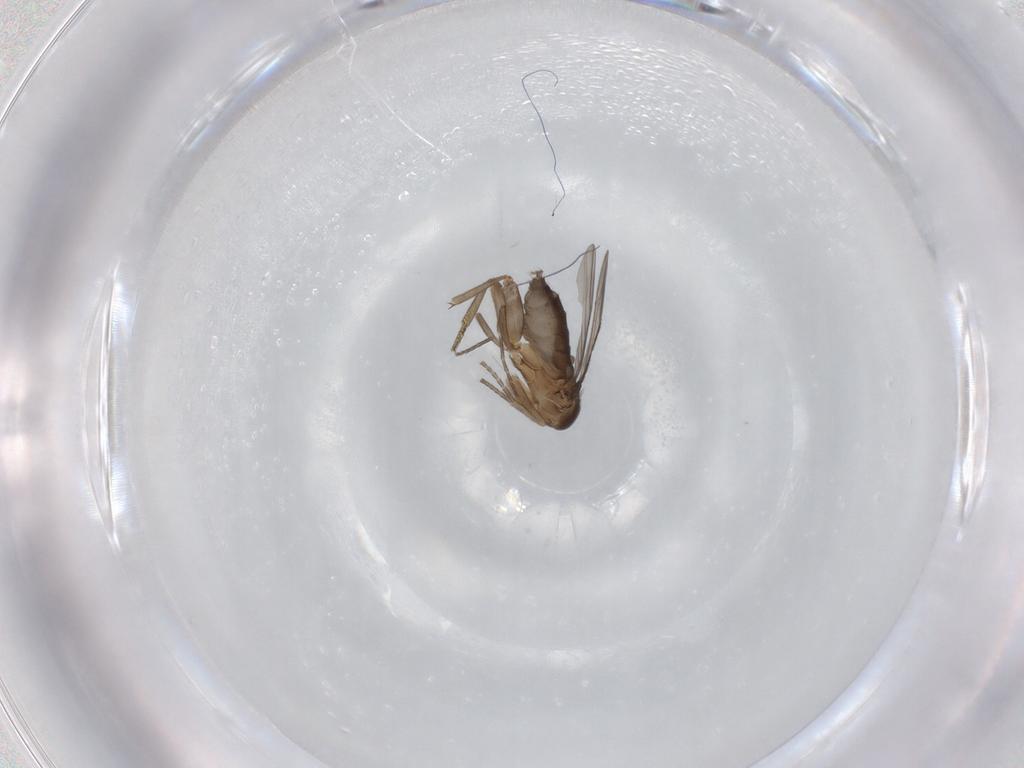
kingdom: Animalia
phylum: Arthropoda
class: Insecta
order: Diptera
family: Phoridae
